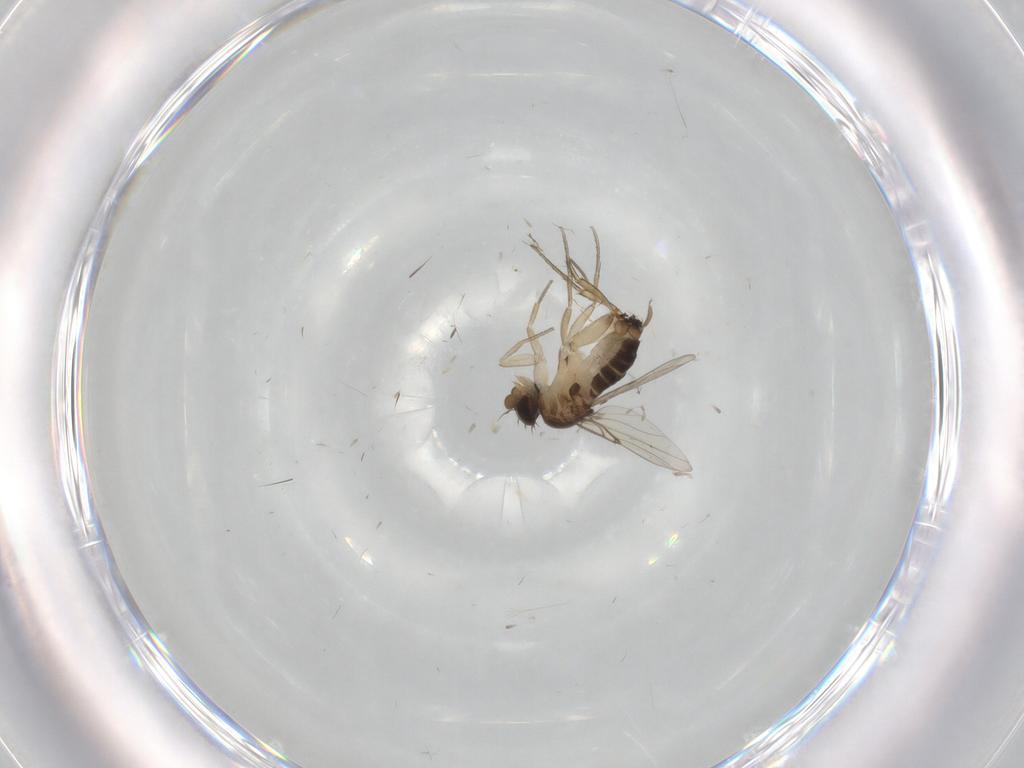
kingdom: Animalia
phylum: Arthropoda
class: Insecta
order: Diptera
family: Phoridae
